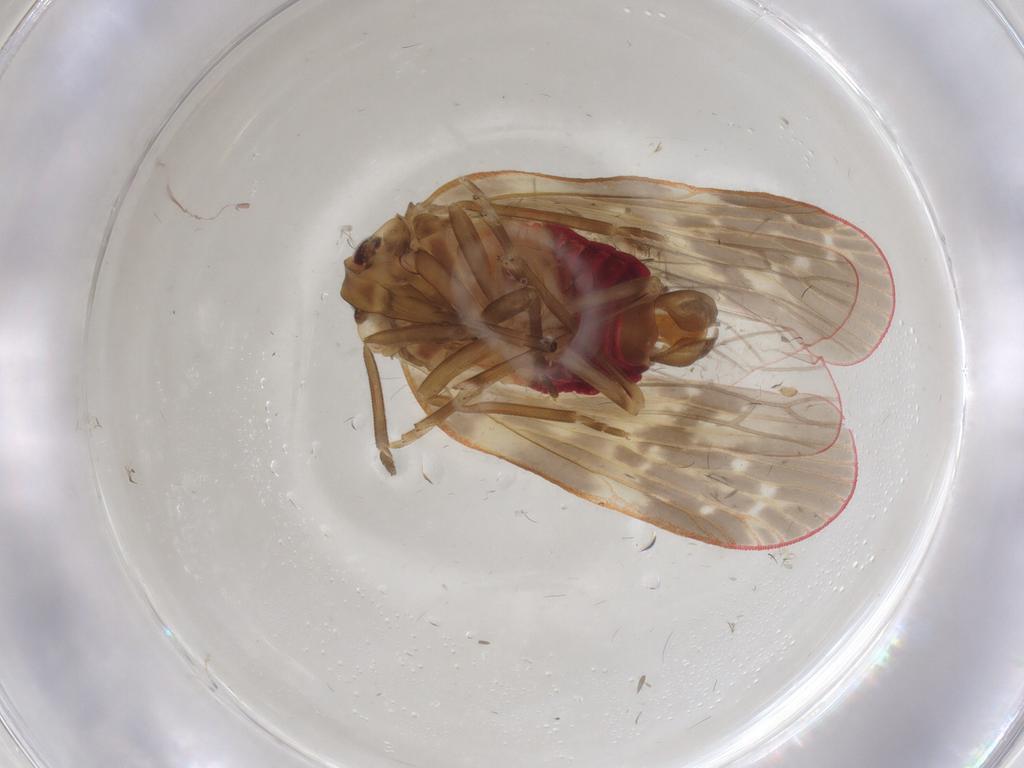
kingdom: Animalia
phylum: Arthropoda
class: Insecta
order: Hemiptera
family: Achilidae
